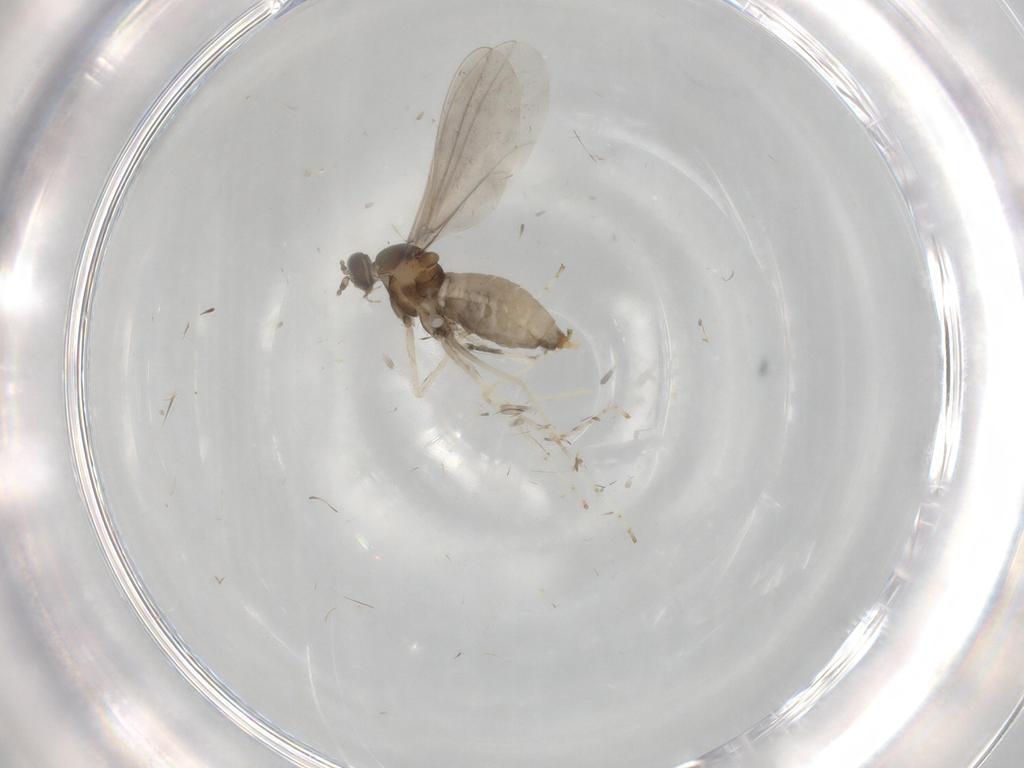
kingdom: Animalia
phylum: Arthropoda
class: Insecta
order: Diptera
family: Cecidomyiidae
